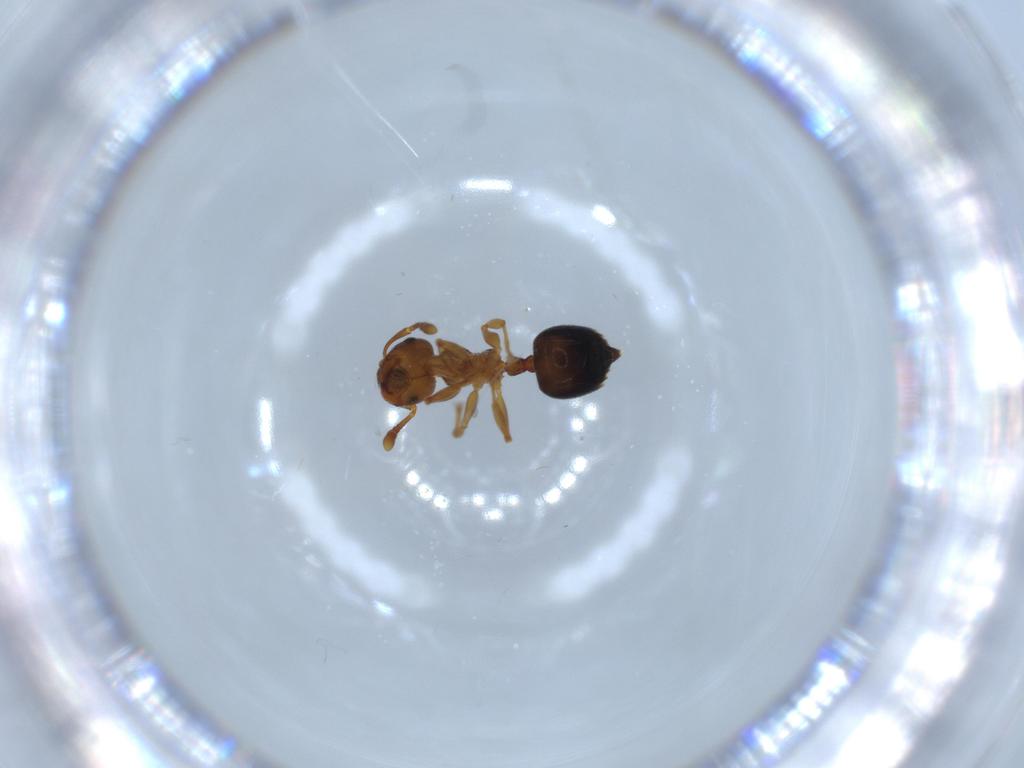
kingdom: Animalia
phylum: Arthropoda
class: Insecta
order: Hymenoptera
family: Formicidae
